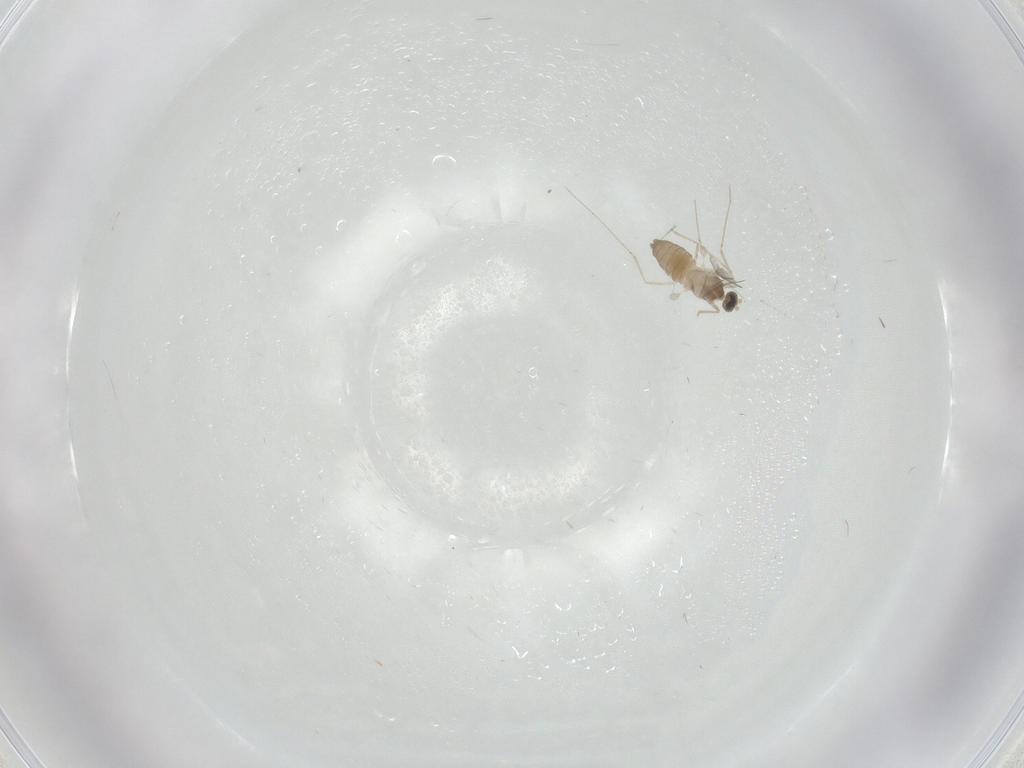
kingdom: Animalia
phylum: Arthropoda
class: Insecta
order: Diptera
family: Cecidomyiidae
